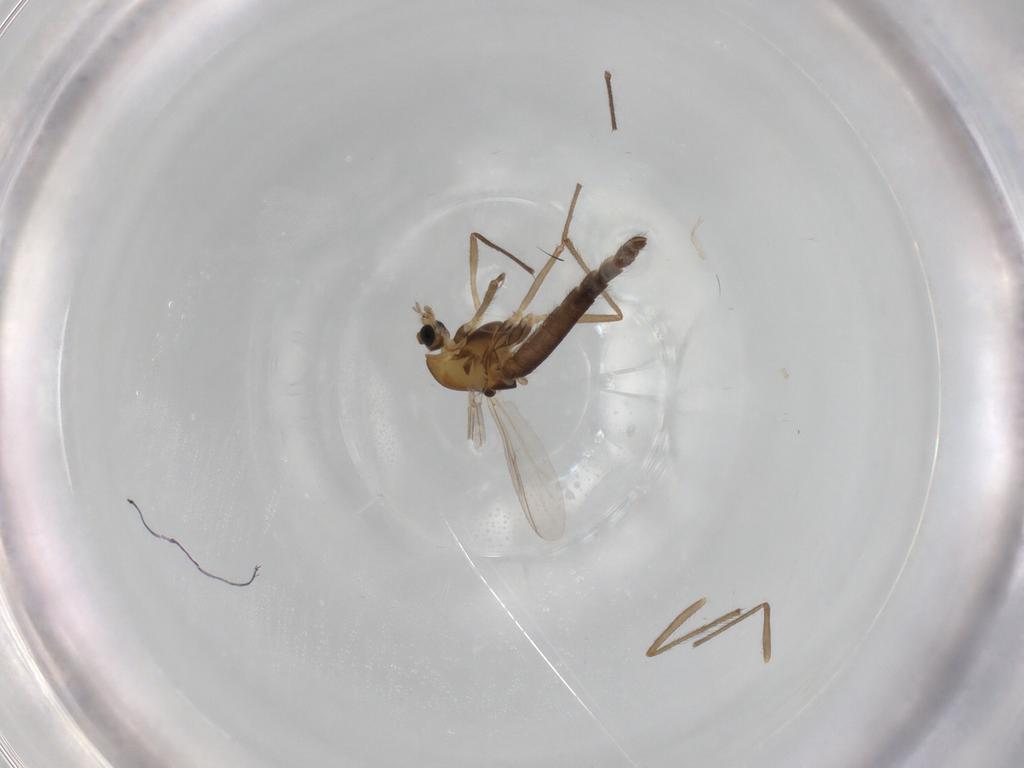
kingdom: Animalia
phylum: Arthropoda
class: Insecta
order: Diptera
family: Chironomidae
